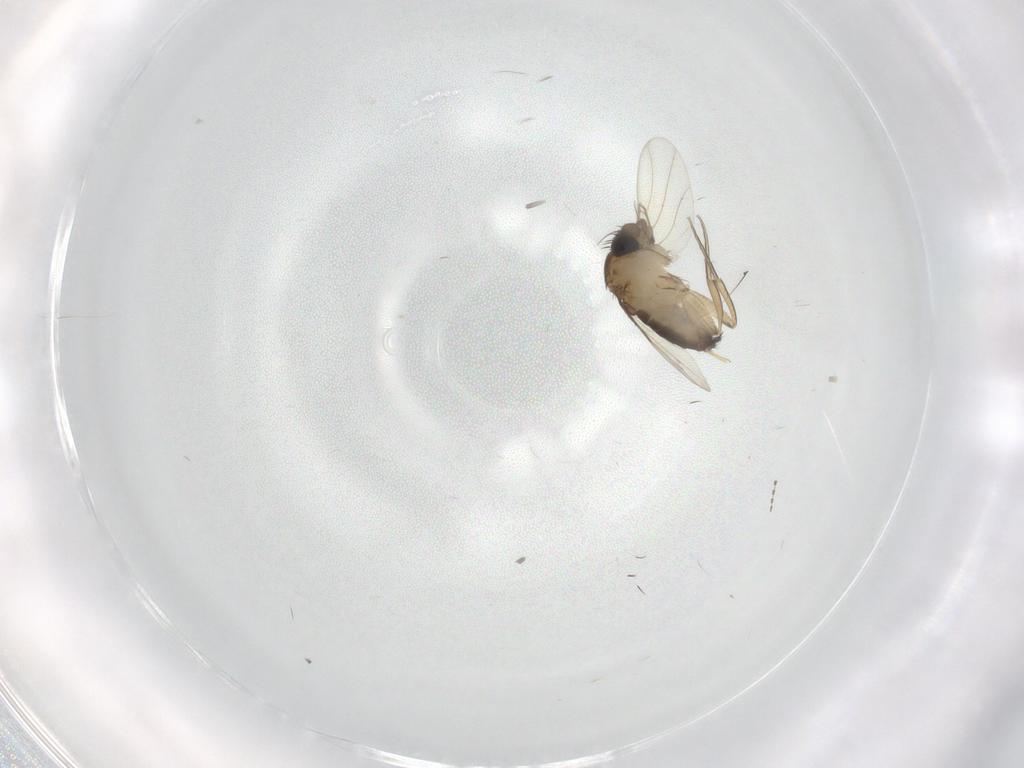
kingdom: Animalia
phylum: Arthropoda
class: Insecta
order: Diptera
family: Phoridae
